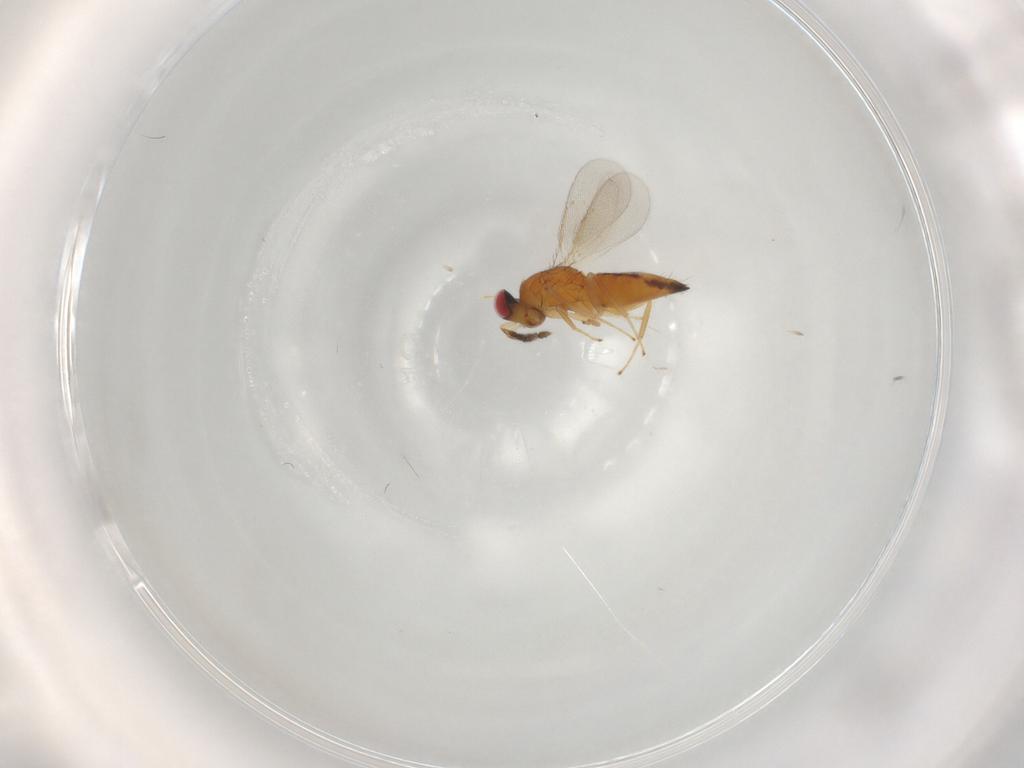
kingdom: Animalia
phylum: Arthropoda
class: Insecta
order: Hymenoptera
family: Eulophidae
